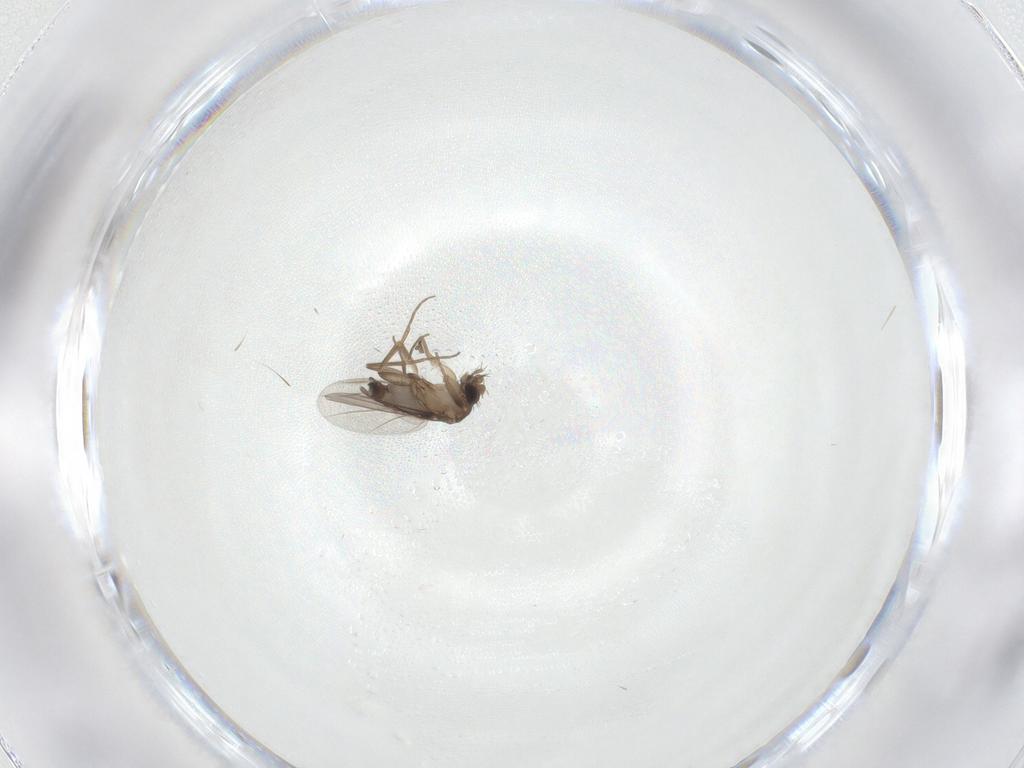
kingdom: Animalia
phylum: Arthropoda
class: Insecta
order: Diptera
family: Phoridae
